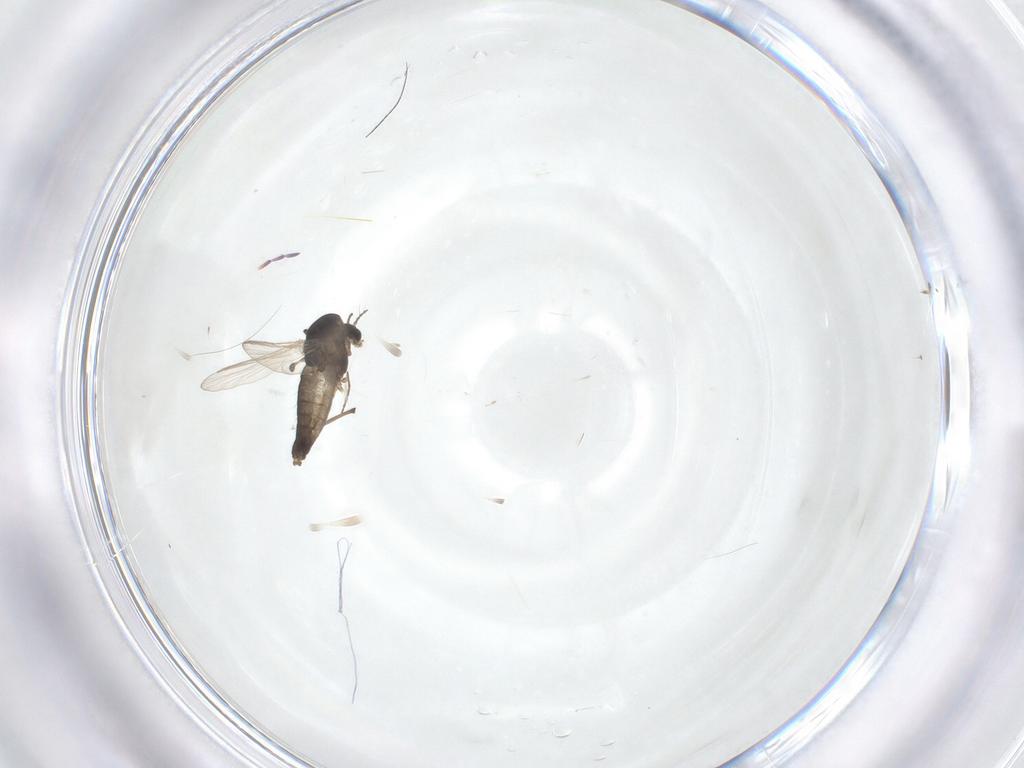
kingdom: Animalia
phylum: Arthropoda
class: Insecta
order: Diptera
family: Chironomidae
